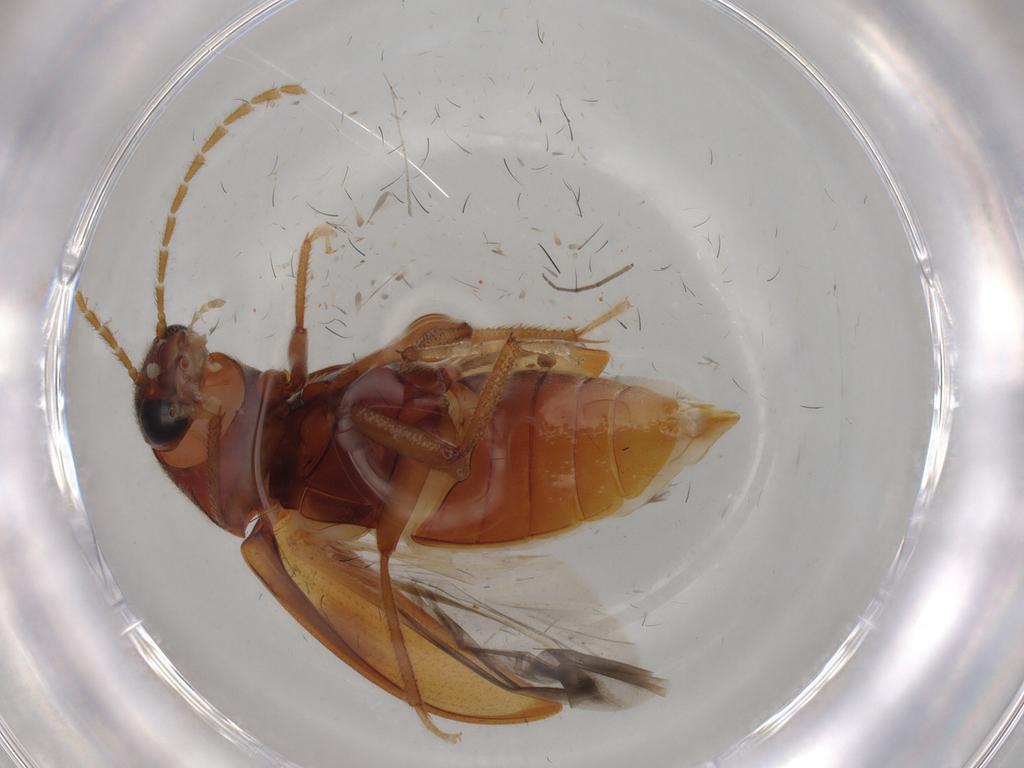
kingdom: Animalia
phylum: Arthropoda
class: Insecta
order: Coleoptera
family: Ptilodactylidae
